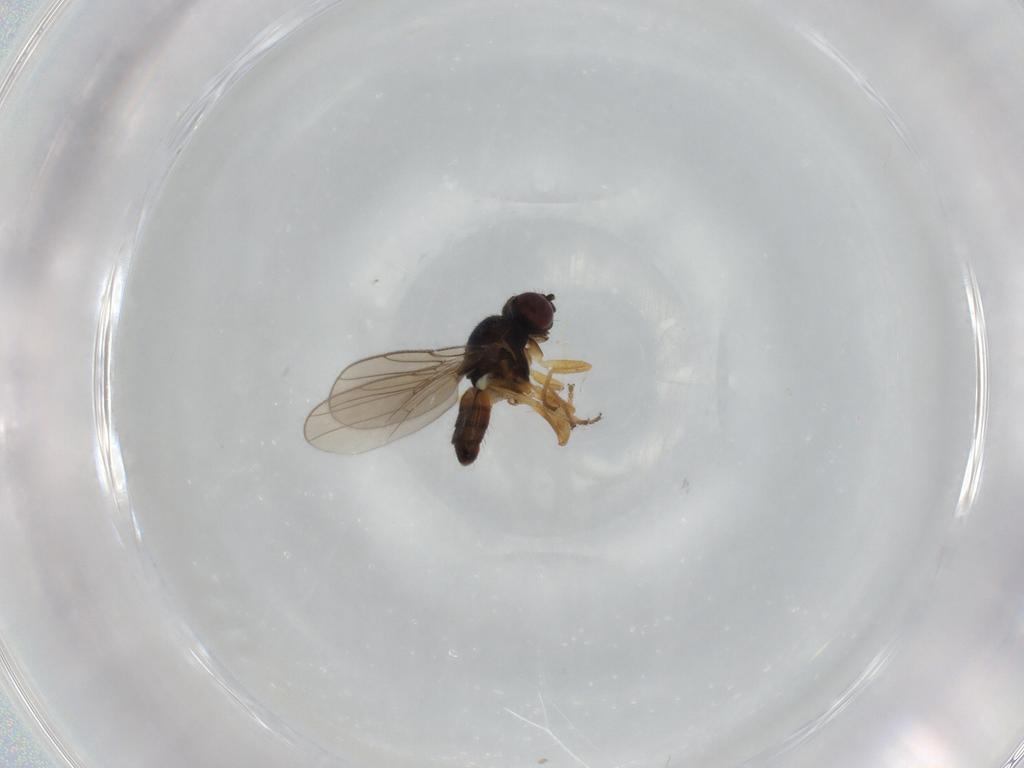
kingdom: Animalia
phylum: Arthropoda
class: Insecta
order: Diptera
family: Chloropidae
